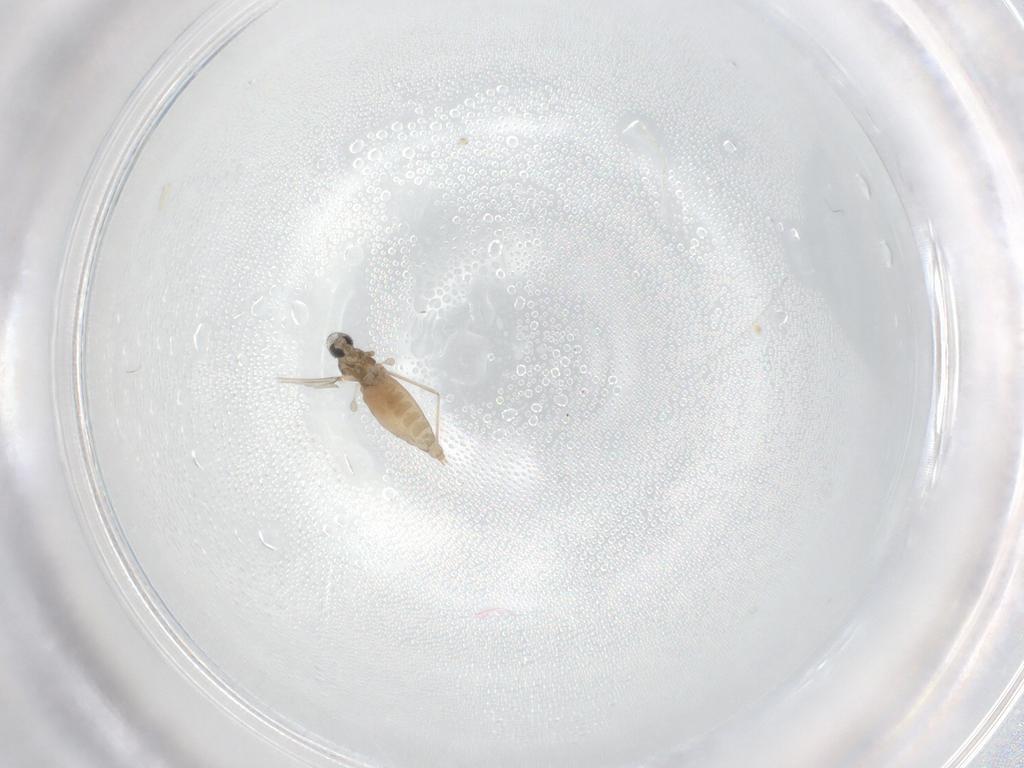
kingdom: Animalia
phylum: Arthropoda
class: Insecta
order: Diptera
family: Cecidomyiidae
